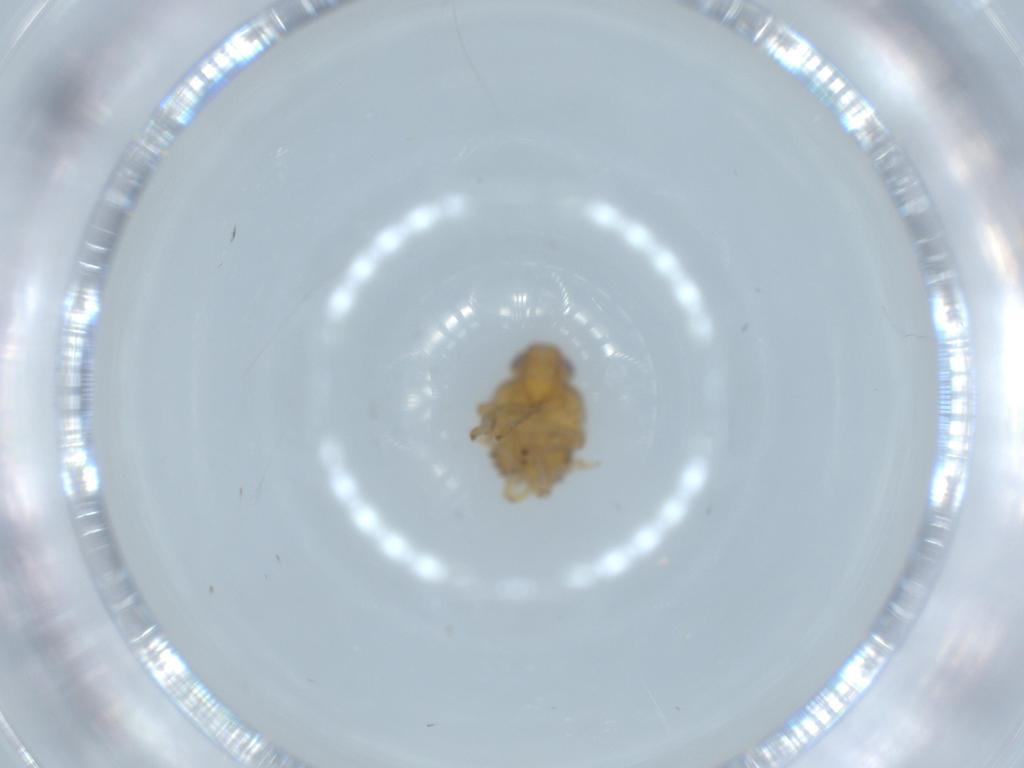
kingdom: Animalia
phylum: Arthropoda
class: Insecta
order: Hemiptera
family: Issidae
